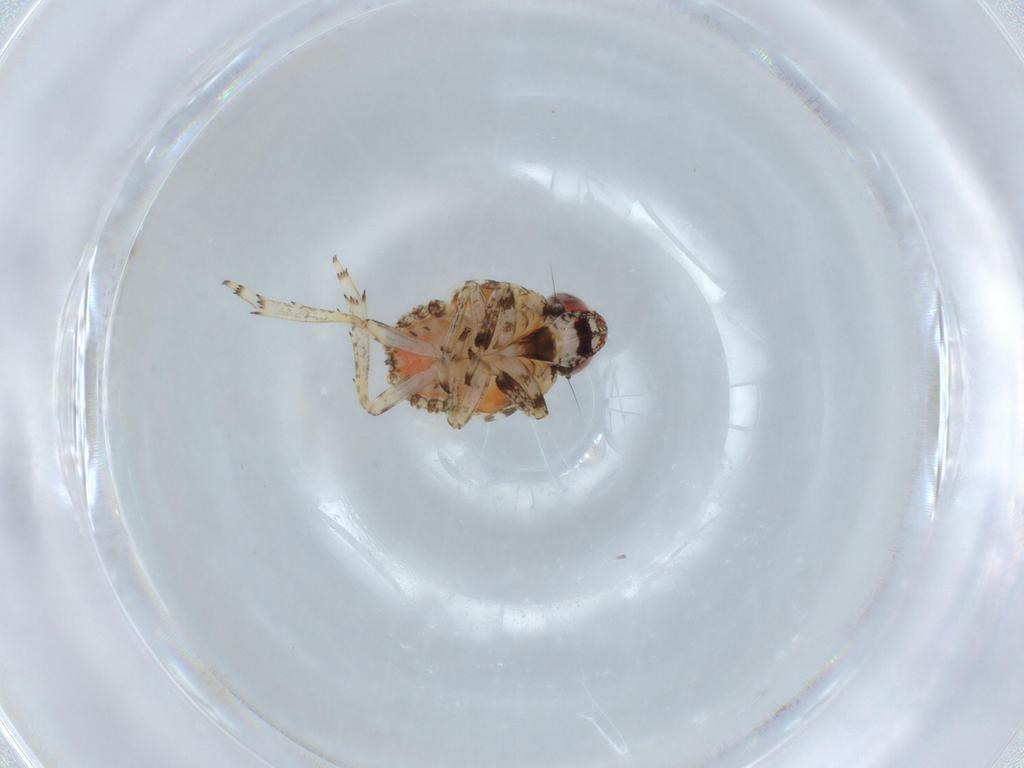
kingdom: Animalia
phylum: Arthropoda
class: Insecta
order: Hemiptera
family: Issidae
